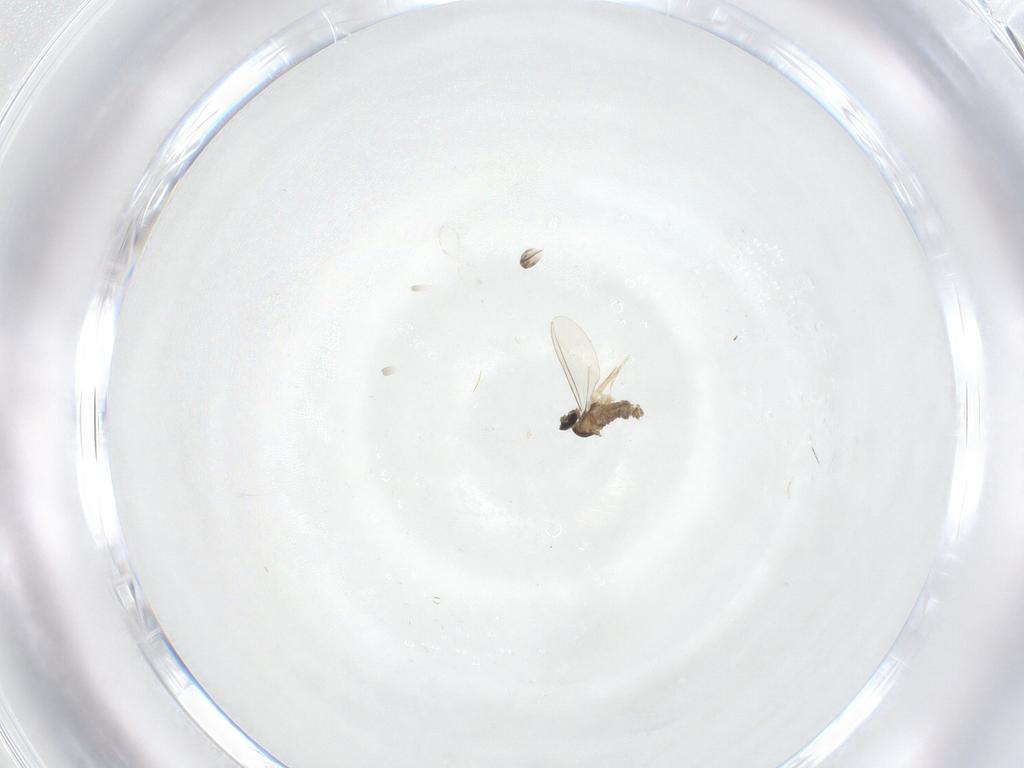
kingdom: Animalia
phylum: Arthropoda
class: Insecta
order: Diptera
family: Cecidomyiidae
